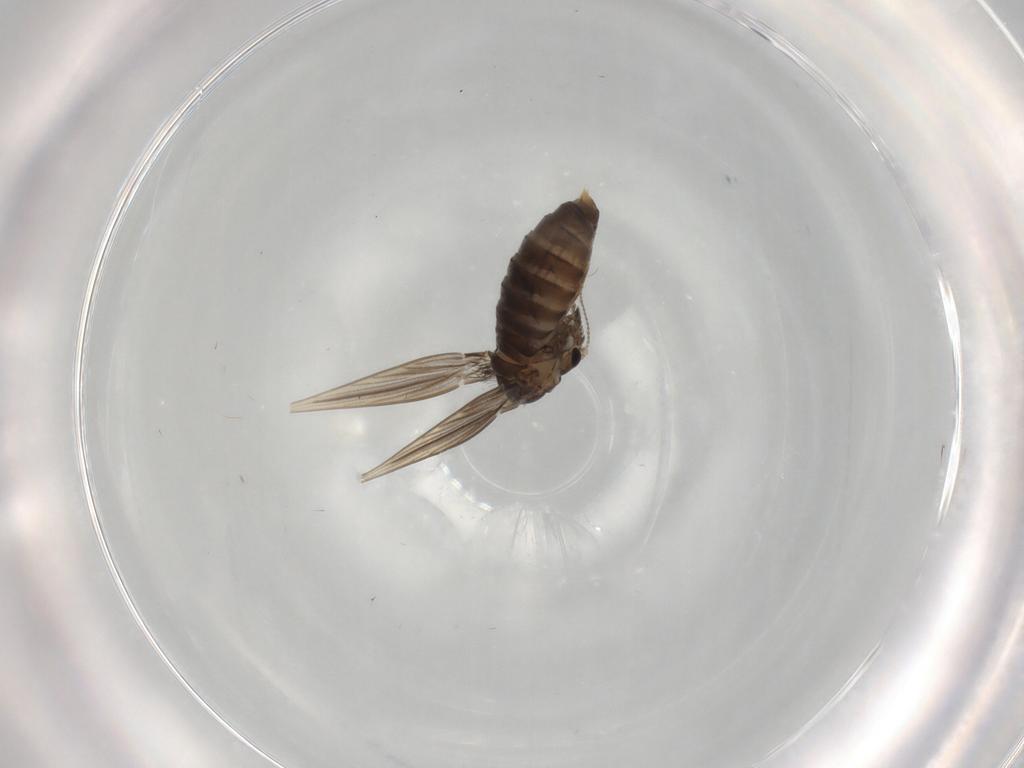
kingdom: Animalia
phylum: Arthropoda
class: Insecta
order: Diptera
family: Psychodidae
